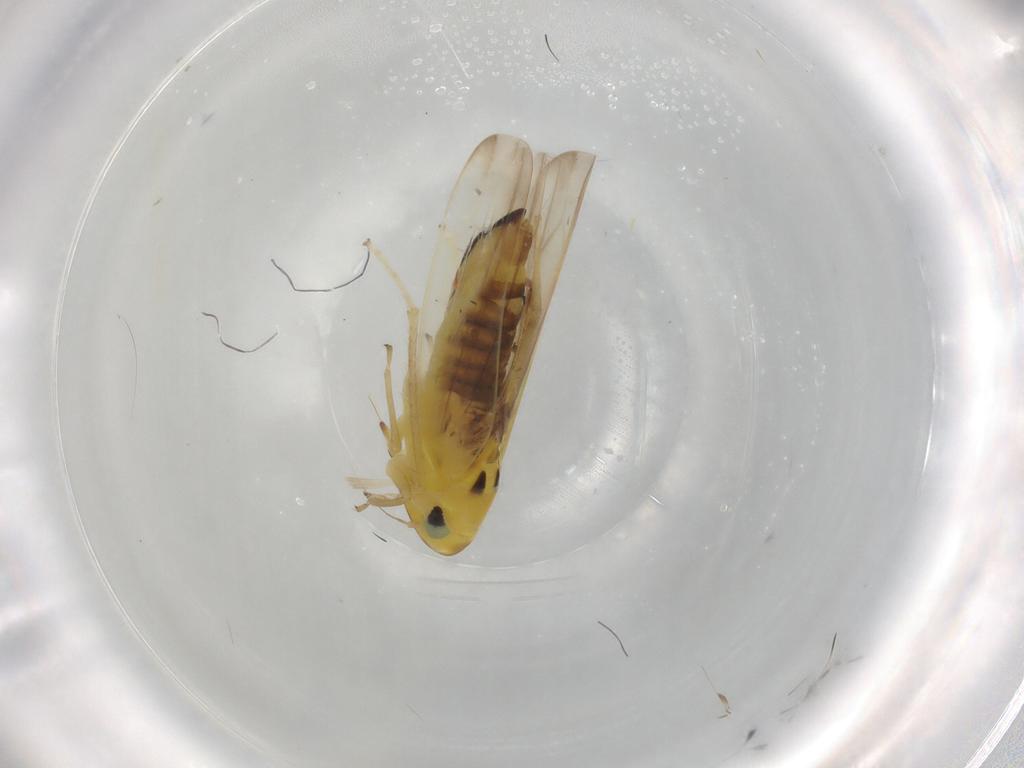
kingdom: Animalia
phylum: Arthropoda
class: Insecta
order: Hemiptera
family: Cicadellidae
